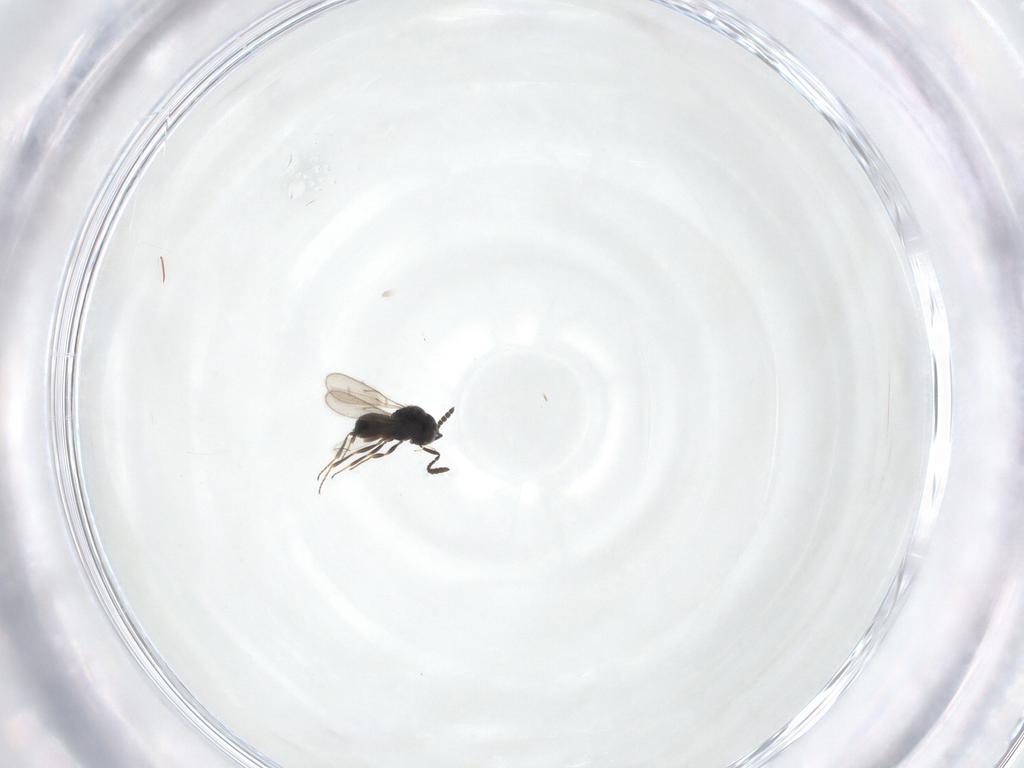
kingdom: Animalia
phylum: Arthropoda
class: Insecta
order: Hymenoptera
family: Scelionidae
